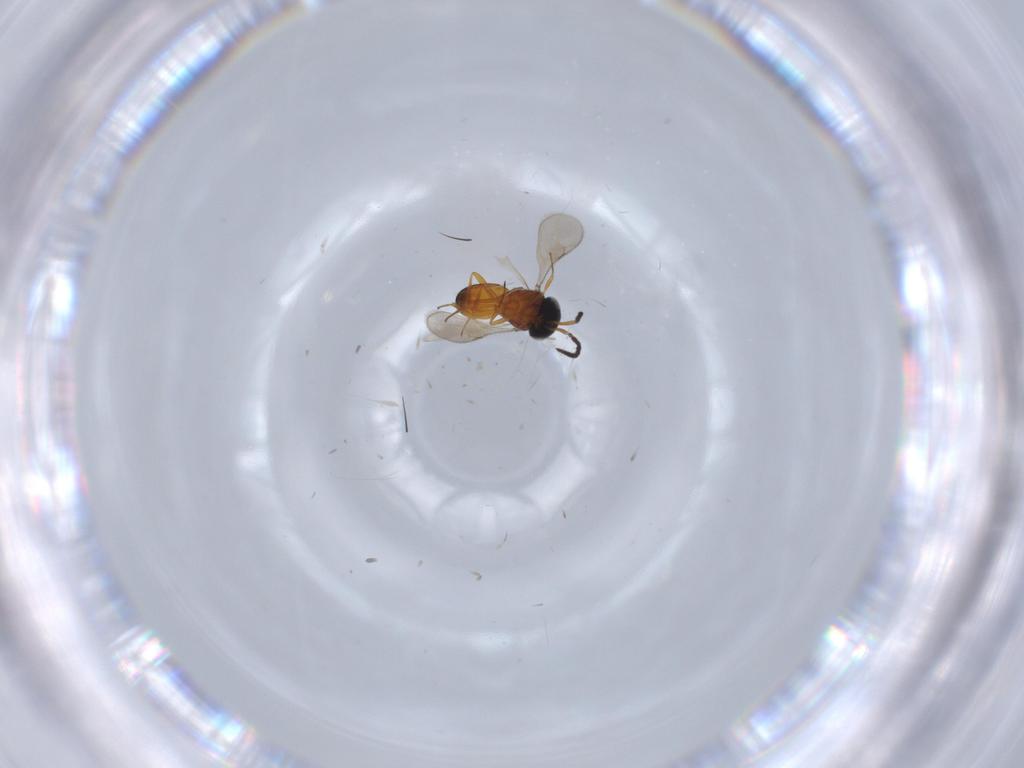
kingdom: Animalia
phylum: Arthropoda
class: Insecta
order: Hymenoptera
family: Scelionidae
